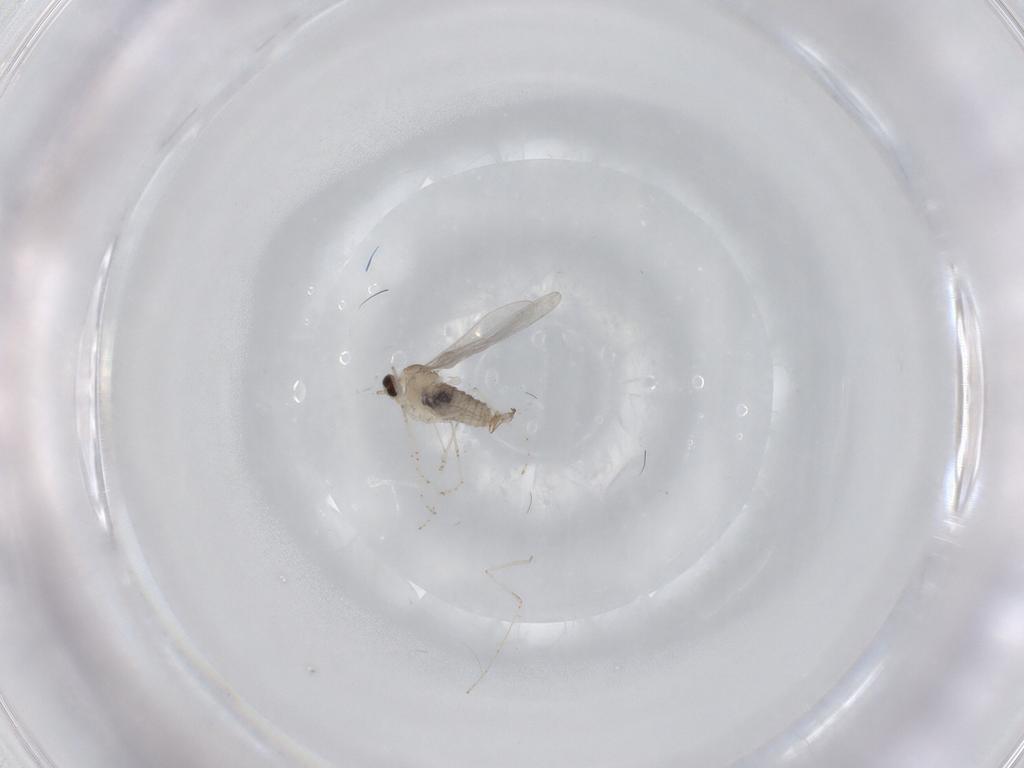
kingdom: Animalia
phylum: Arthropoda
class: Insecta
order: Diptera
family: Cecidomyiidae
